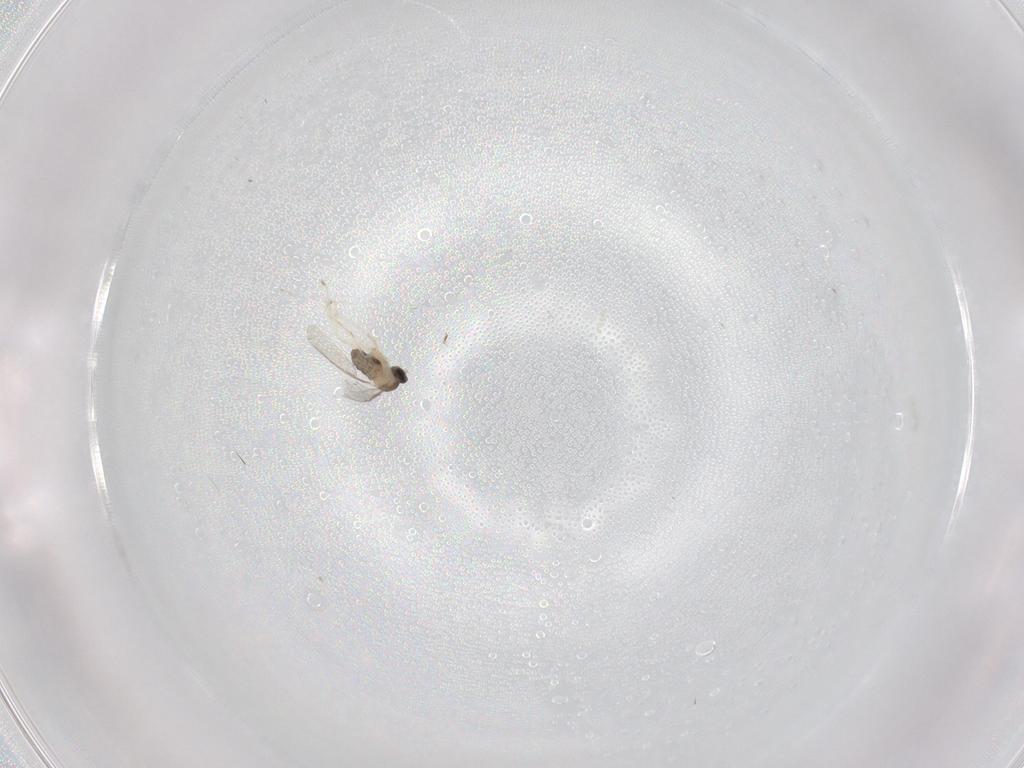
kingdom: Animalia
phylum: Arthropoda
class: Insecta
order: Diptera
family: Cecidomyiidae
